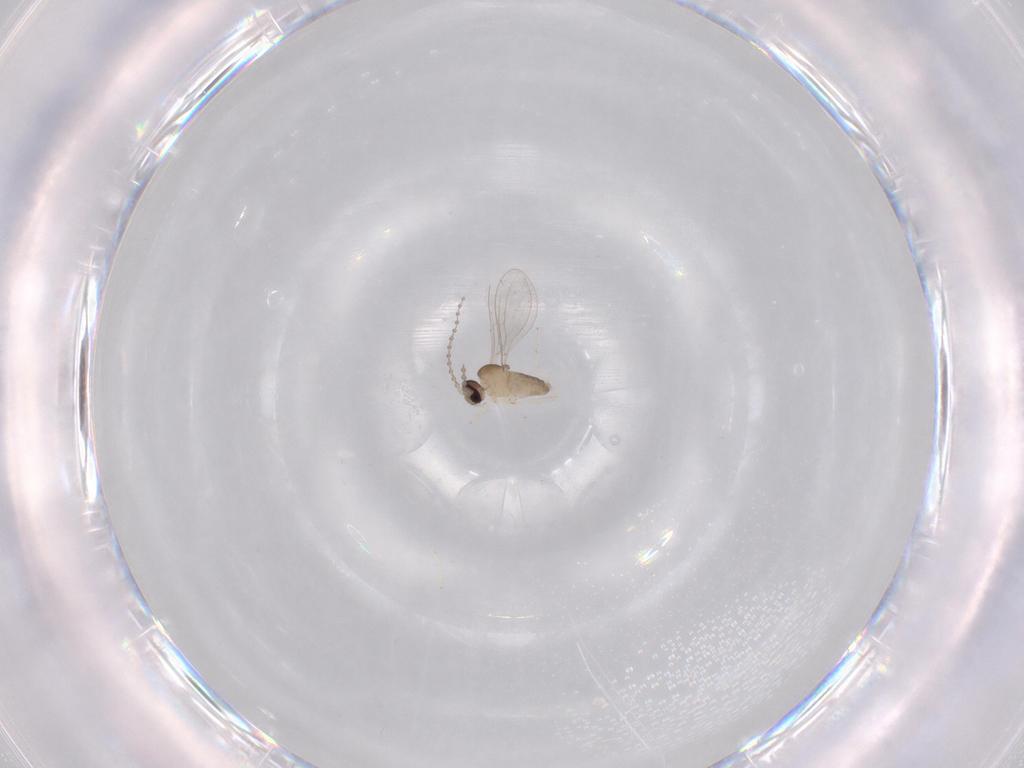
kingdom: Animalia
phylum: Arthropoda
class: Insecta
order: Diptera
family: Cecidomyiidae
